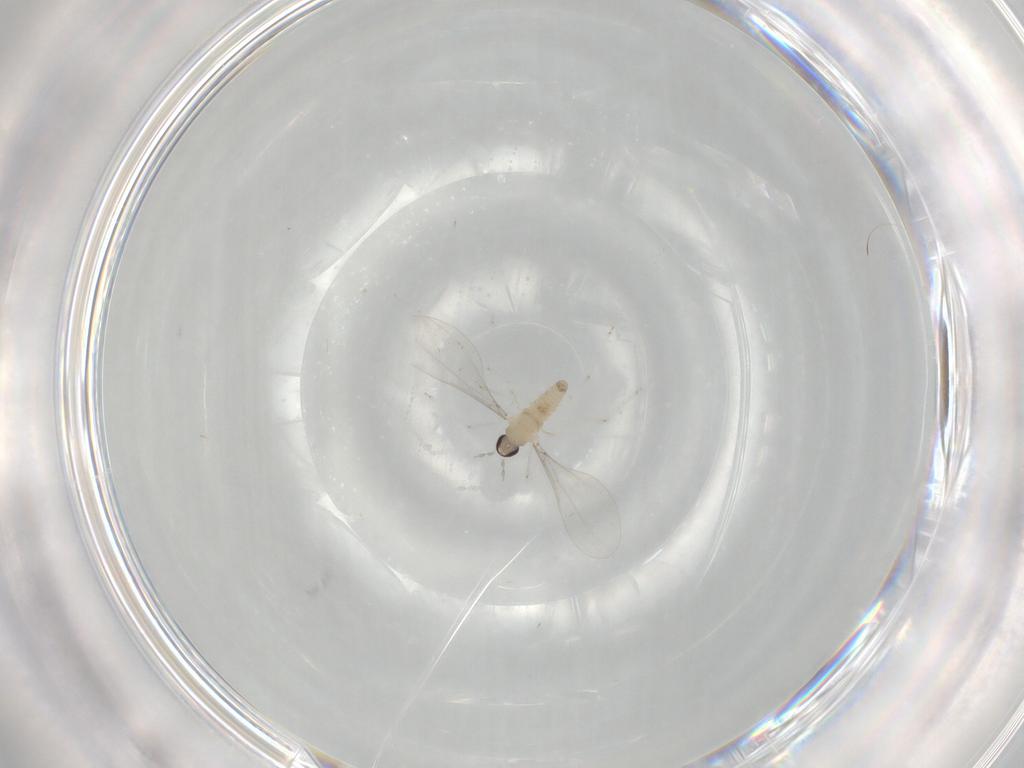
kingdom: Animalia
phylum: Arthropoda
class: Insecta
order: Diptera
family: Cecidomyiidae
